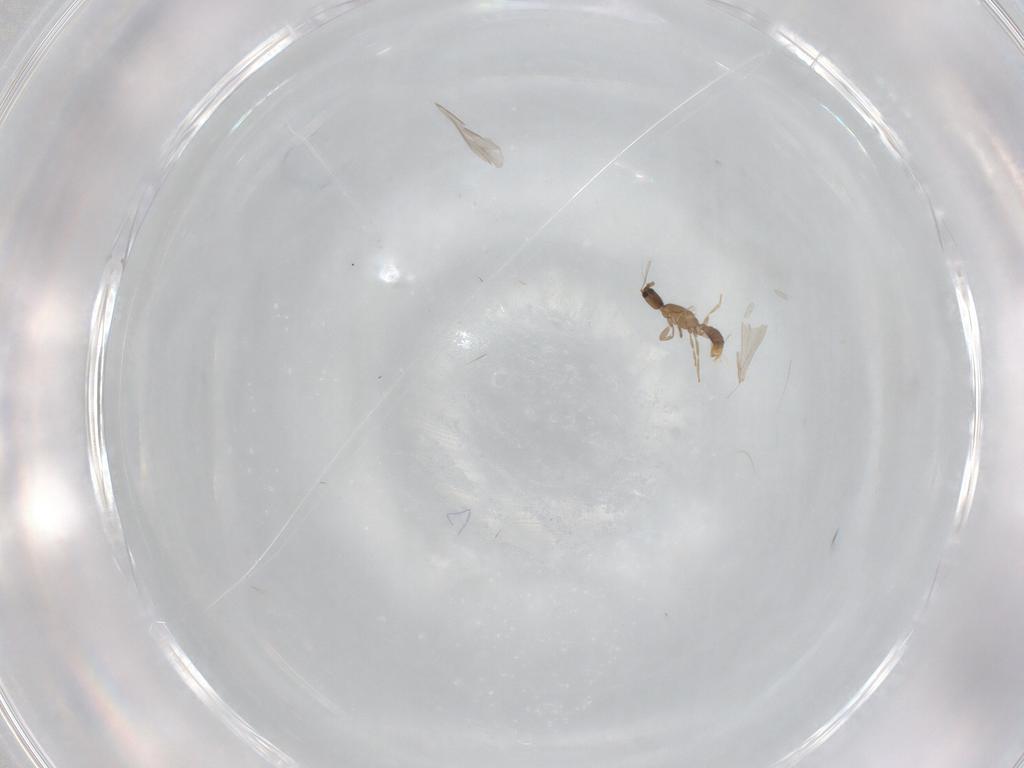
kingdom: Animalia
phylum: Arthropoda
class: Insecta
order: Hymenoptera
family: Formicidae
